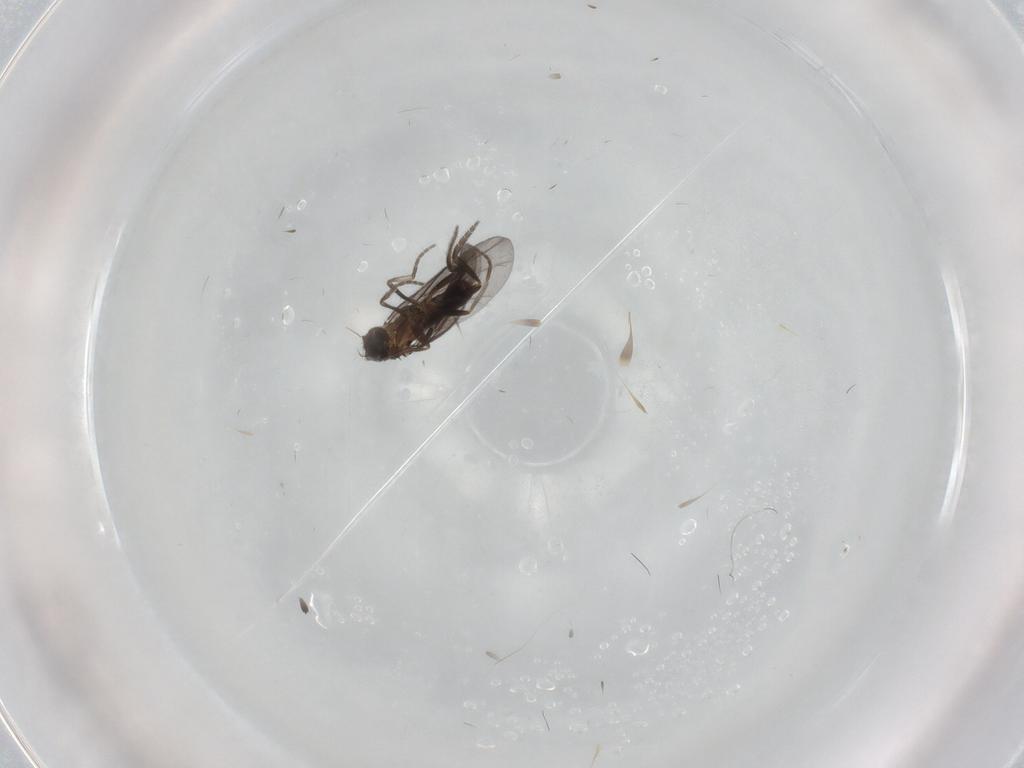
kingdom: Animalia
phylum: Arthropoda
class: Insecta
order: Diptera
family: Phoridae
